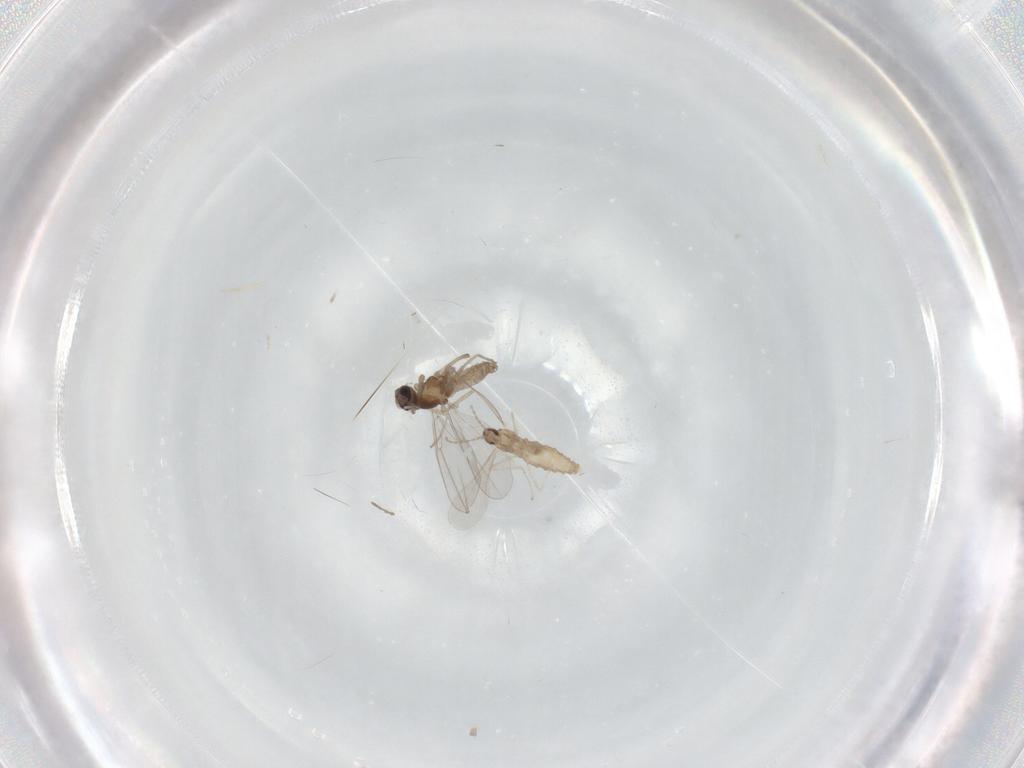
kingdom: Animalia
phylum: Arthropoda
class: Insecta
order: Diptera
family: Cecidomyiidae
